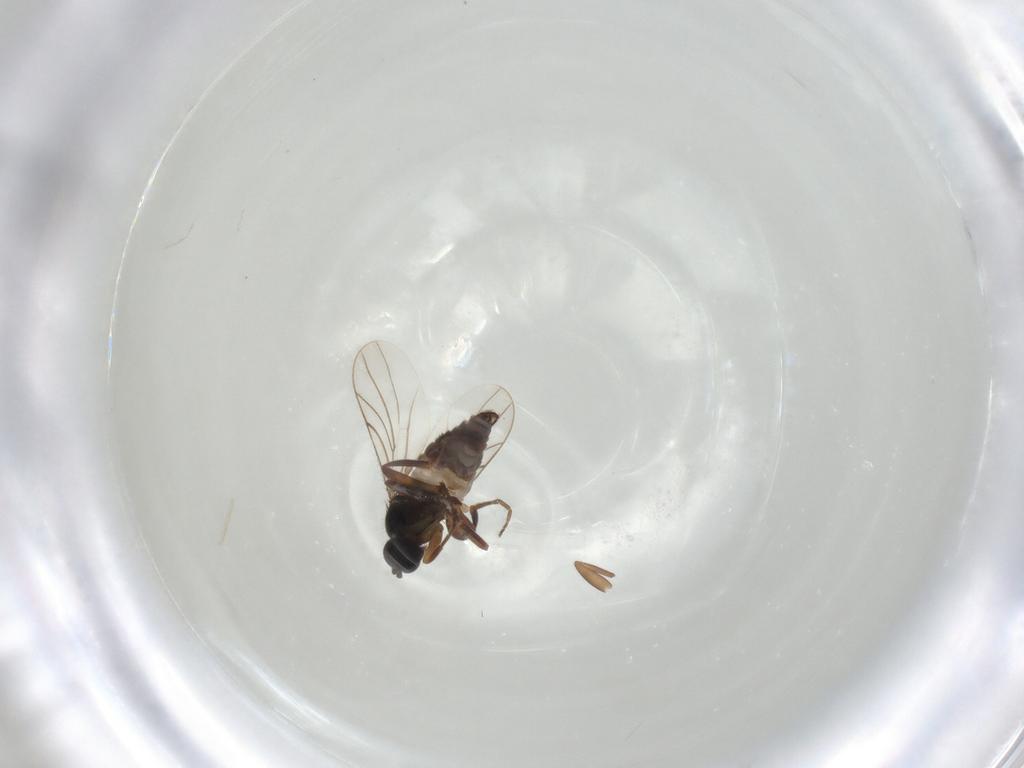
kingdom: Animalia
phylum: Arthropoda
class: Insecta
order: Diptera
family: Hybotidae
